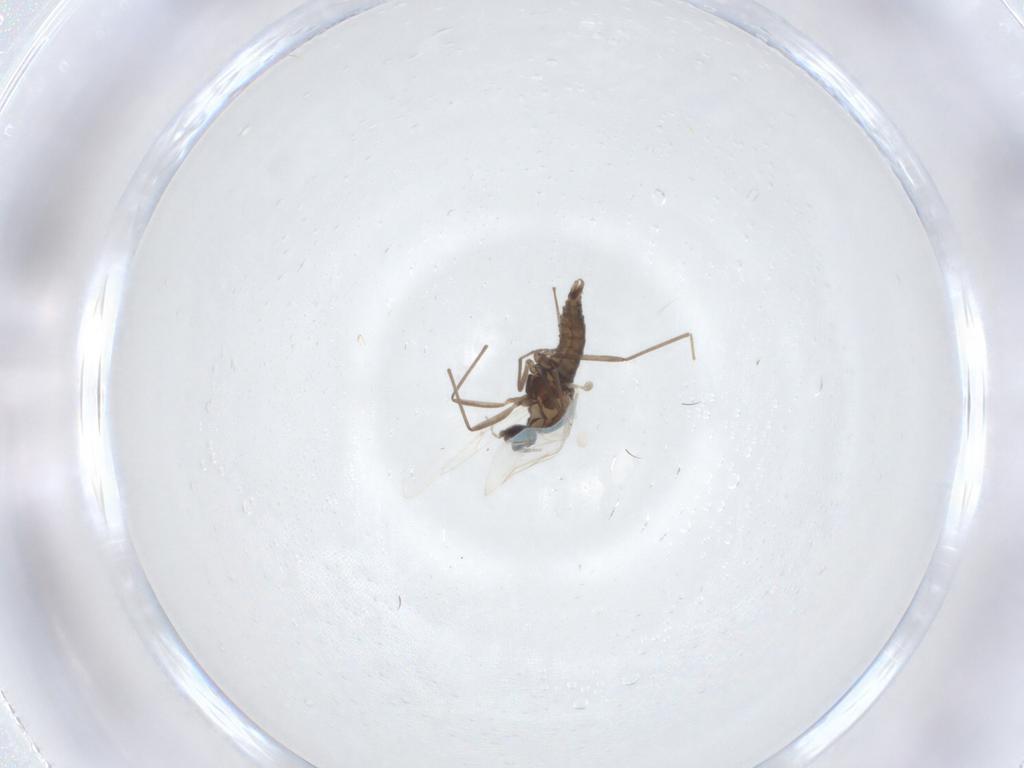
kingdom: Animalia
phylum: Arthropoda
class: Insecta
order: Diptera
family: Cecidomyiidae
